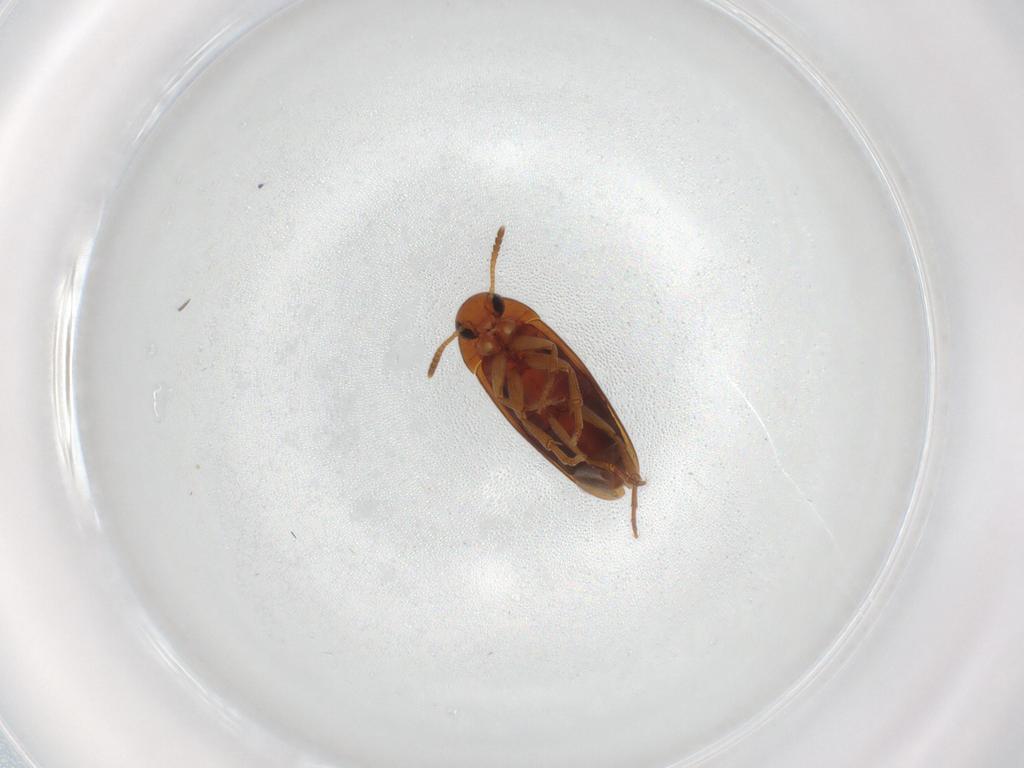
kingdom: Animalia
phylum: Arthropoda
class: Insecta
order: Coleoptera
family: Scraptiidae
